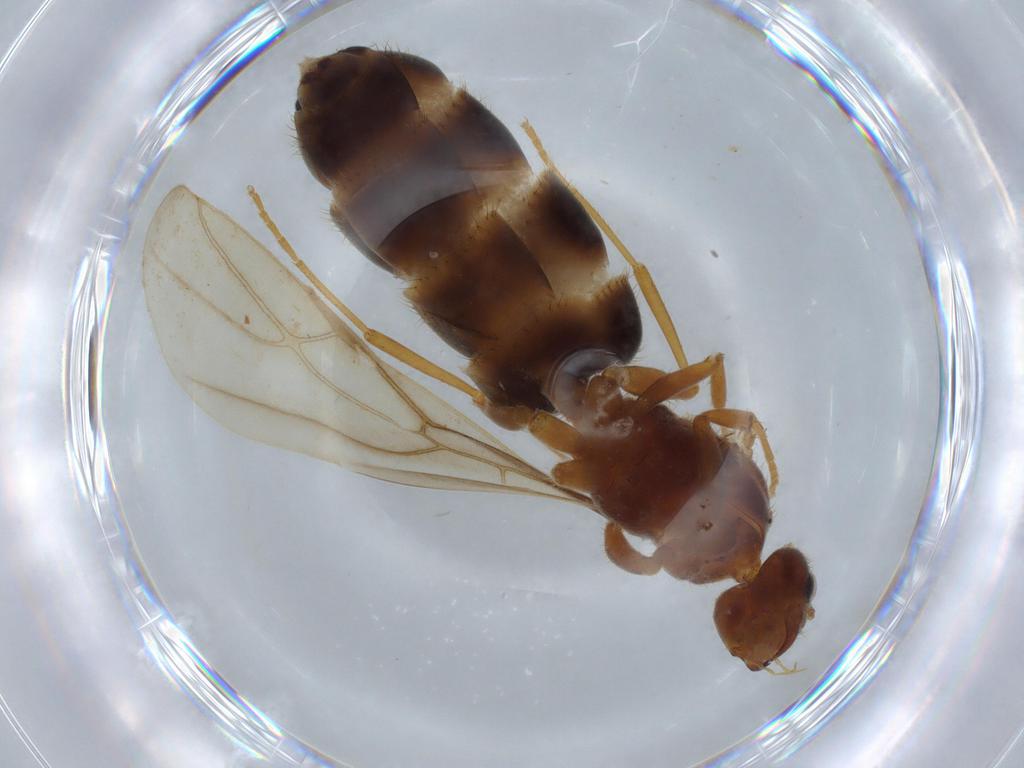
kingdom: Animalia
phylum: Arthropoda
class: Insecta
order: Hymenoptera
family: Formicidae
